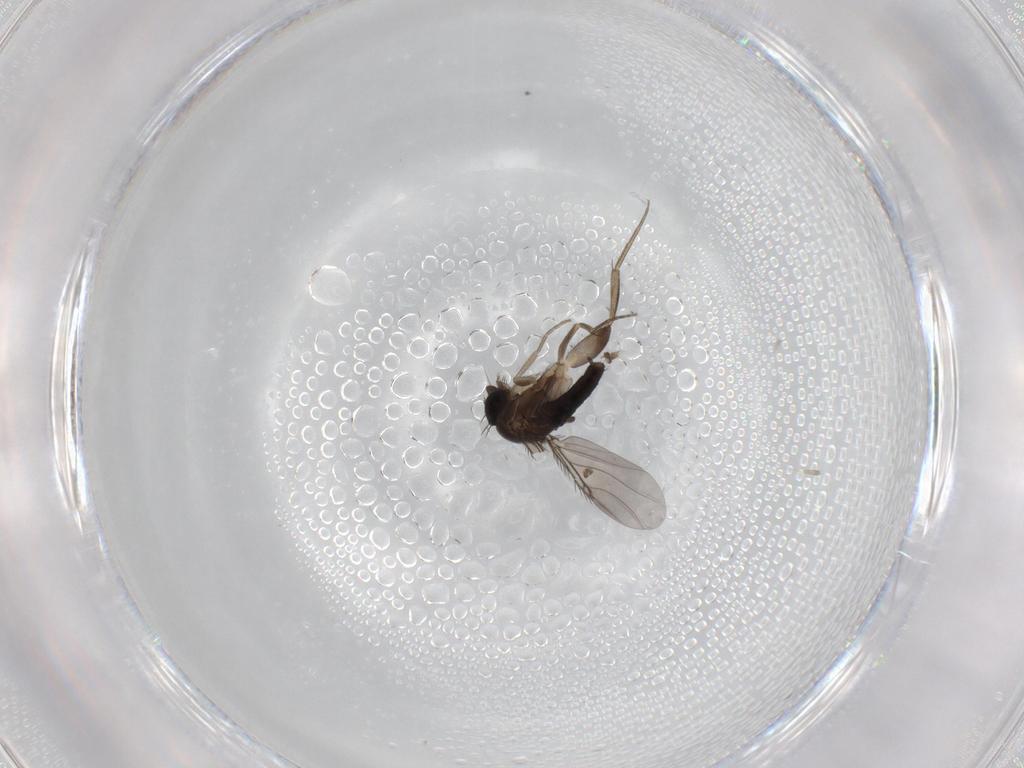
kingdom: Animalia
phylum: Arthropoda
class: Insecta
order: Diptera
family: Phoridae
